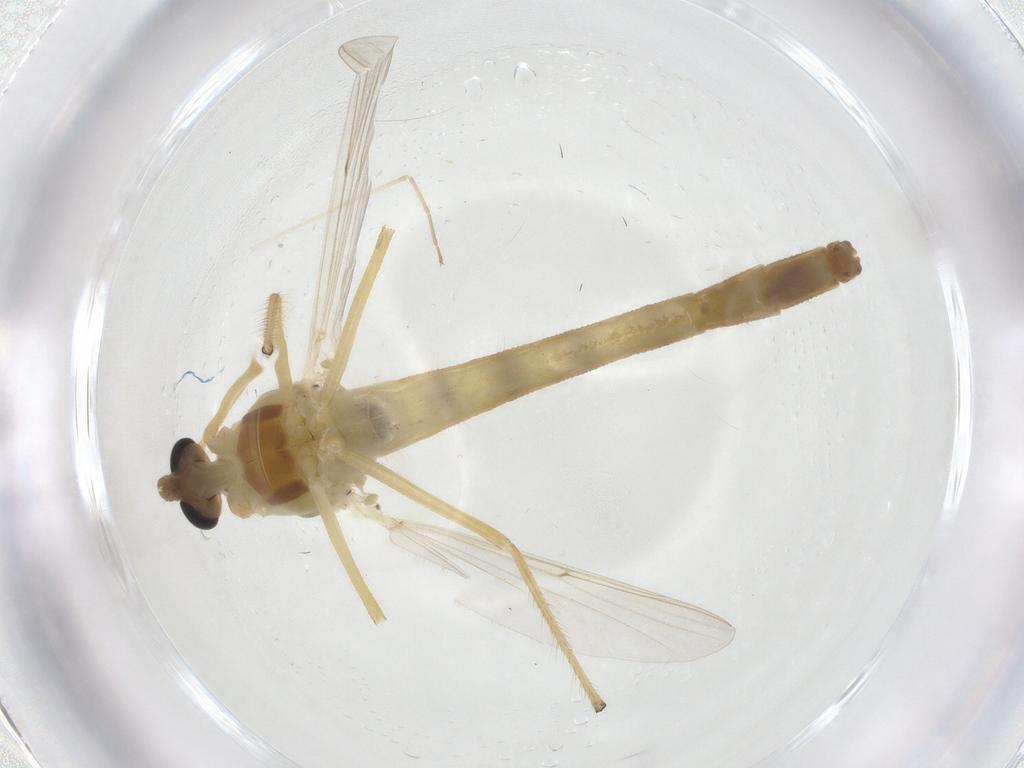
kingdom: Animalia
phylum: Arthropoda
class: Insecta
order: Diptera
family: Chironomidae
